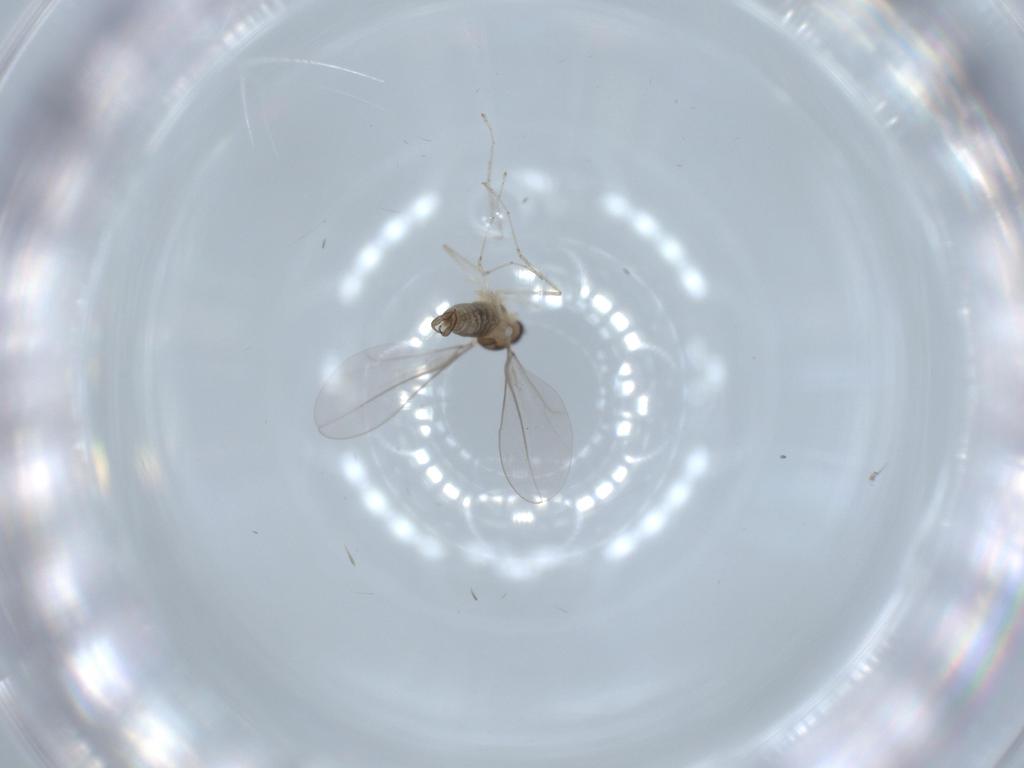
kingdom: Animalia
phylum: Arthropoda
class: Insecta
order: Diptera
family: Cecidomyiidae
